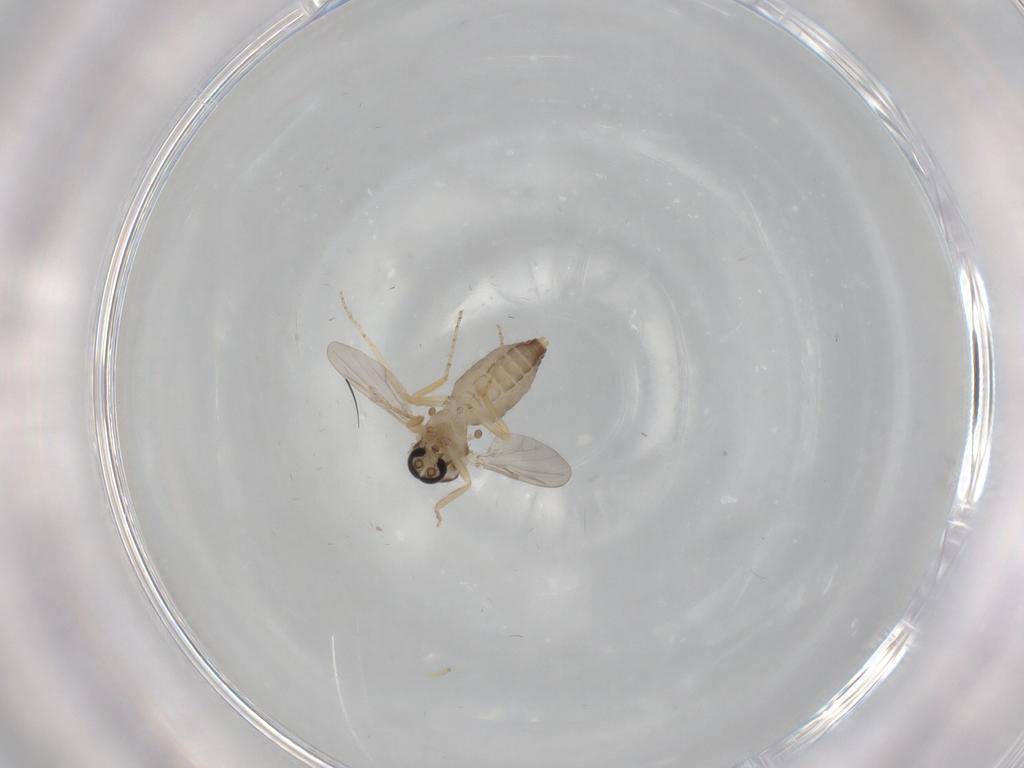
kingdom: Animalia
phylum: Arthropoda
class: Insecta
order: Diptera
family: Ceratopogonidae
